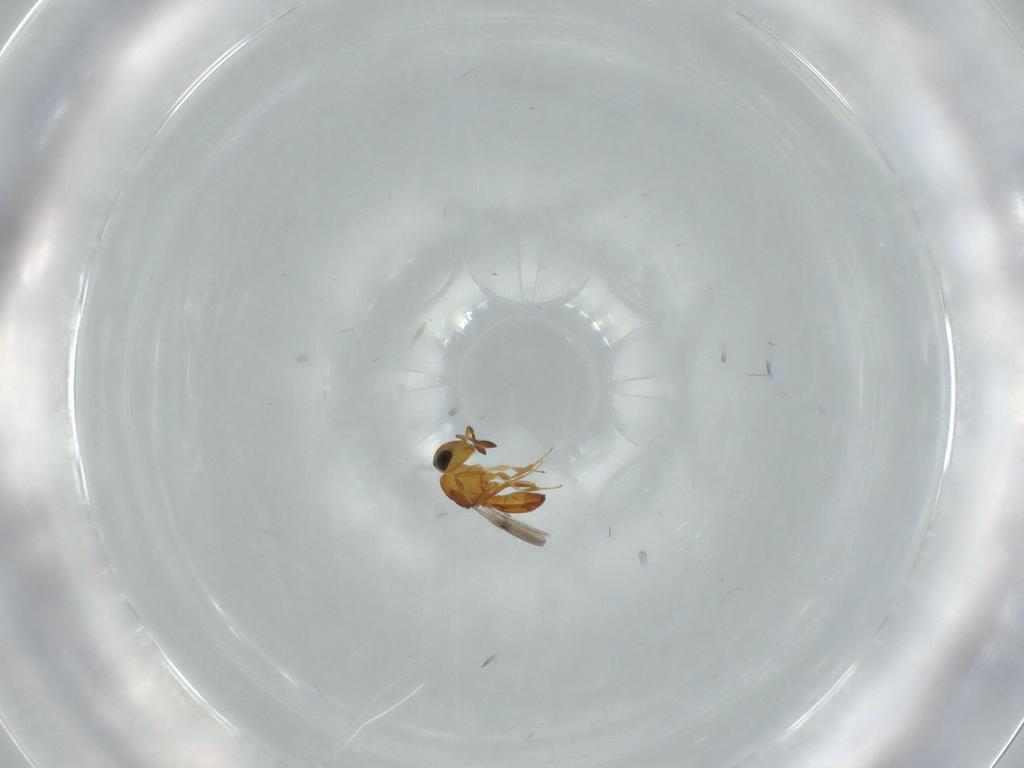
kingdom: Animalia
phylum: Arthropoda
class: Insecta
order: Hymenoptera
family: Scelionidae
